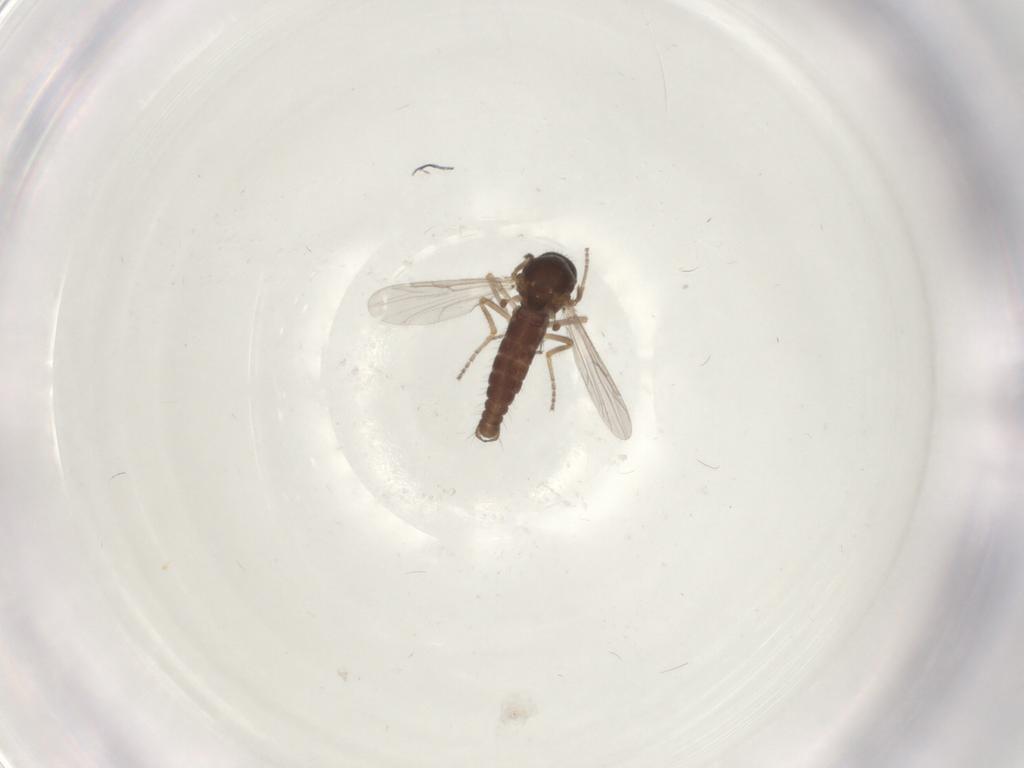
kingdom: Animalia
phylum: Arthropoda
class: Insecta
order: Diptera
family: Ceratopogonidae
